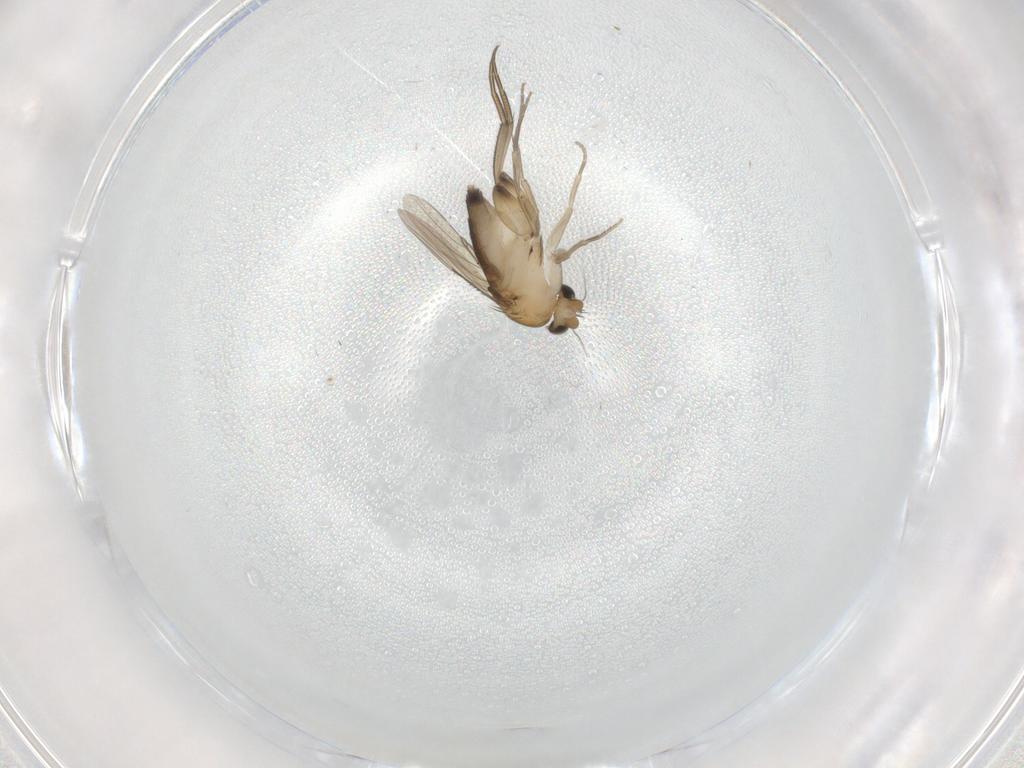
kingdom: Animalia
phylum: Arthropoda
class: Insecta
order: Diptera
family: Phoridae
